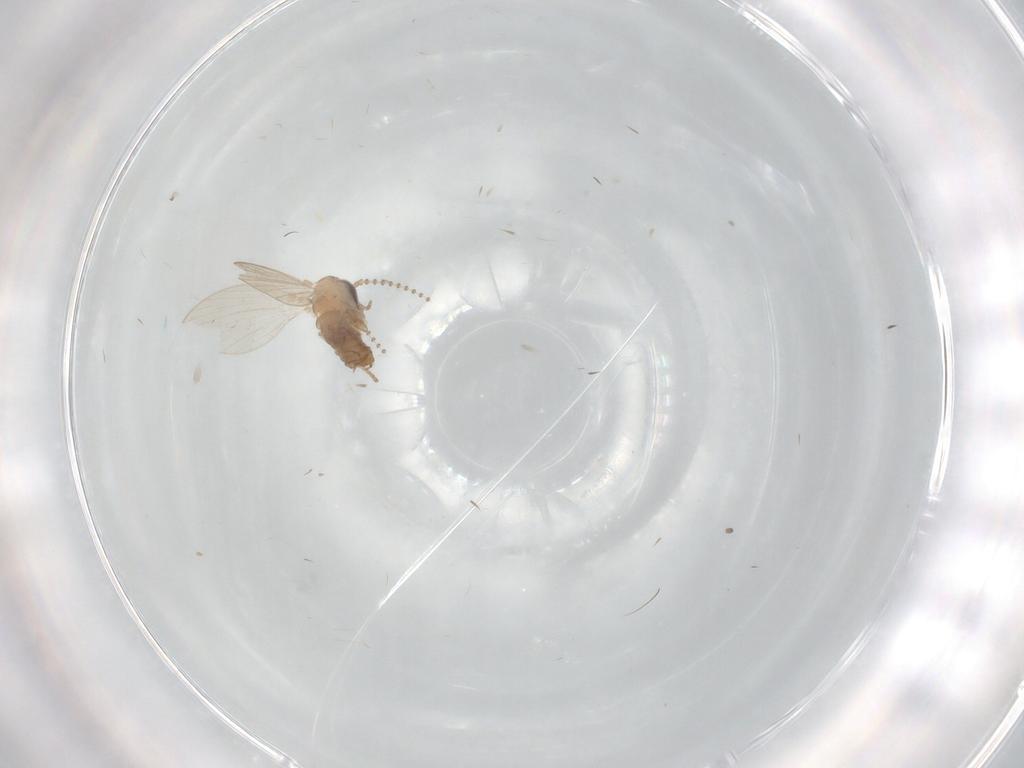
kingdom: Animalia
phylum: Arthropoda
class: Insecta
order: Diptera
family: Psychodidae
